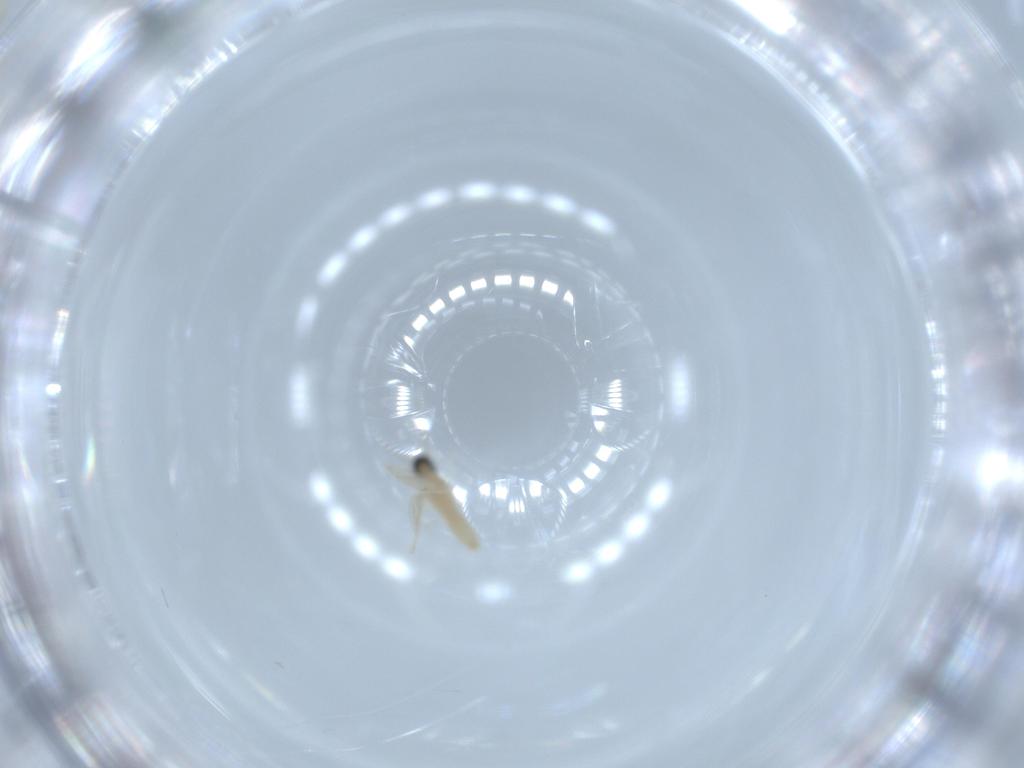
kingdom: Animalia
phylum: Arthropoda
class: Insecta
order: Diptera
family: Cecidomyiidae
